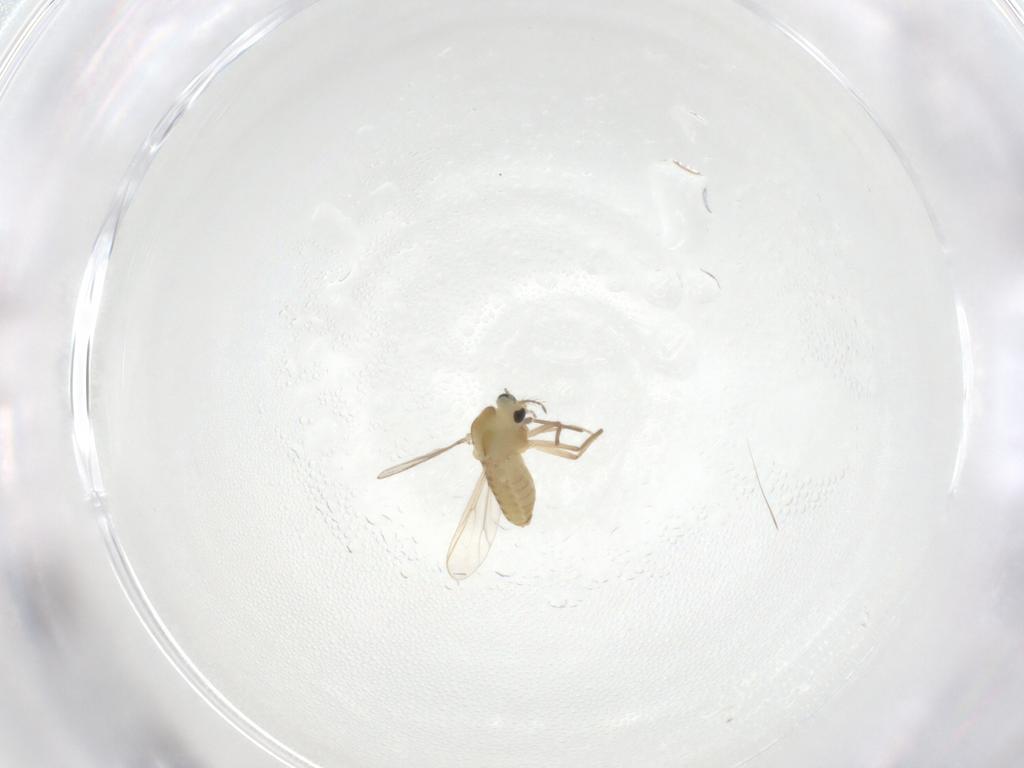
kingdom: Animalia
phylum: Arthropoda
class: Insecta
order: Diptera
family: Chironomidae
